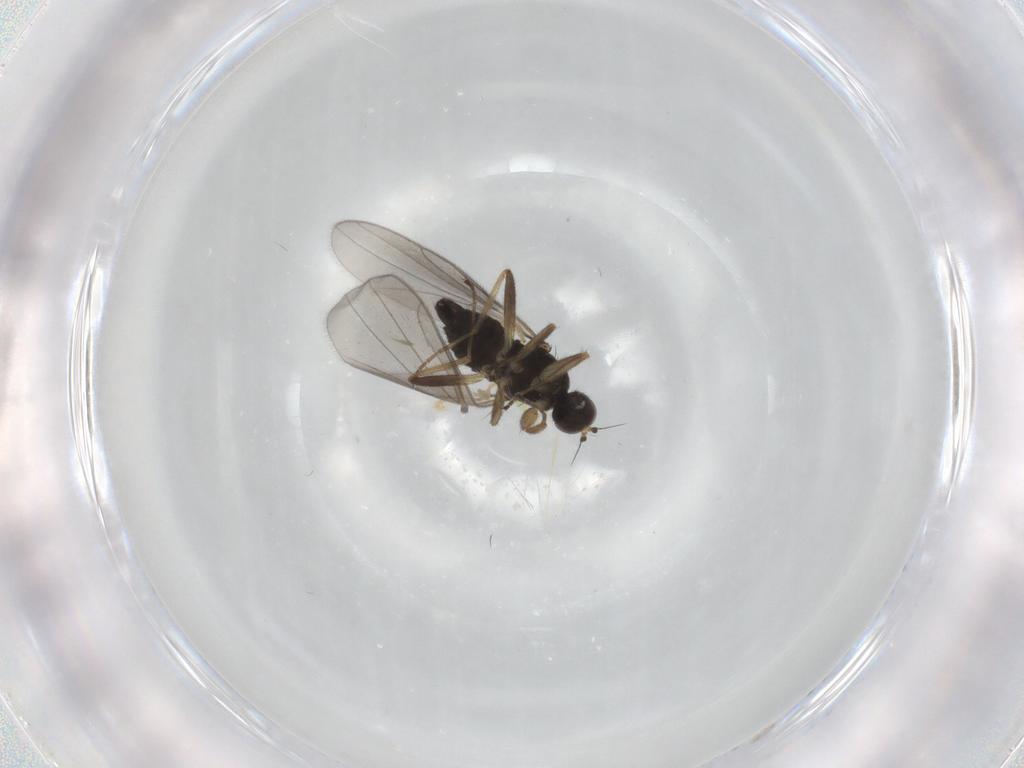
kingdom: Animalia
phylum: Arthropoda
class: Insecta
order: Diptera
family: Hybotidae
